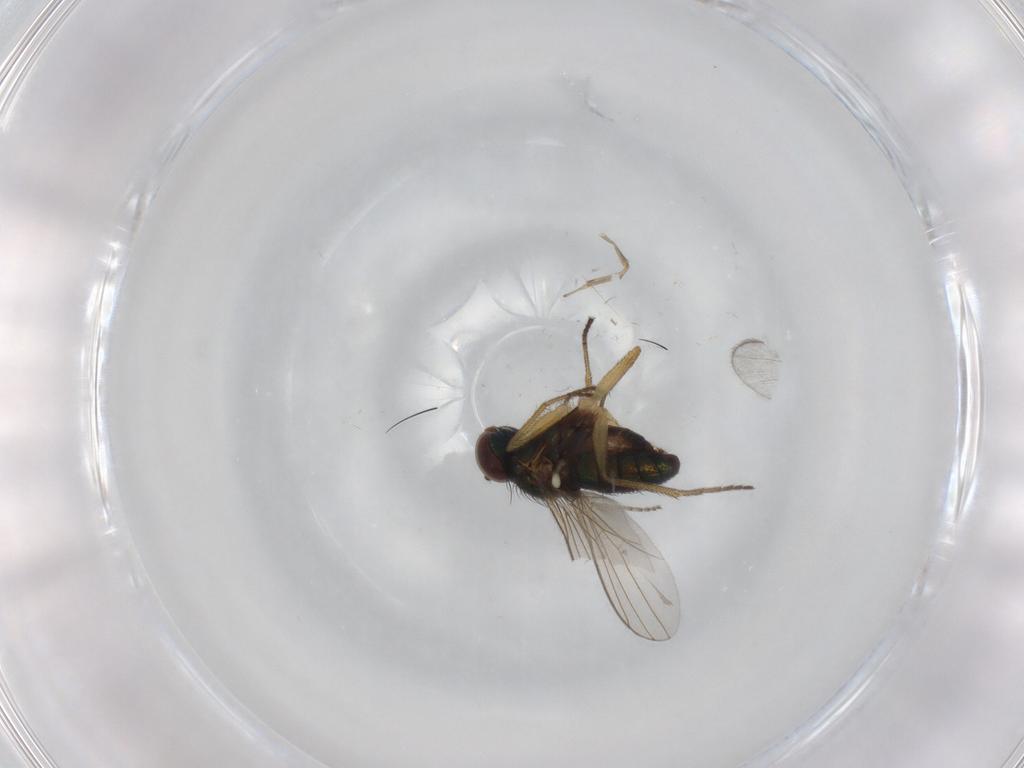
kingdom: Animalia
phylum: Arthropoda
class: Insecta
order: Diptera
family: Ceratopogonidae
